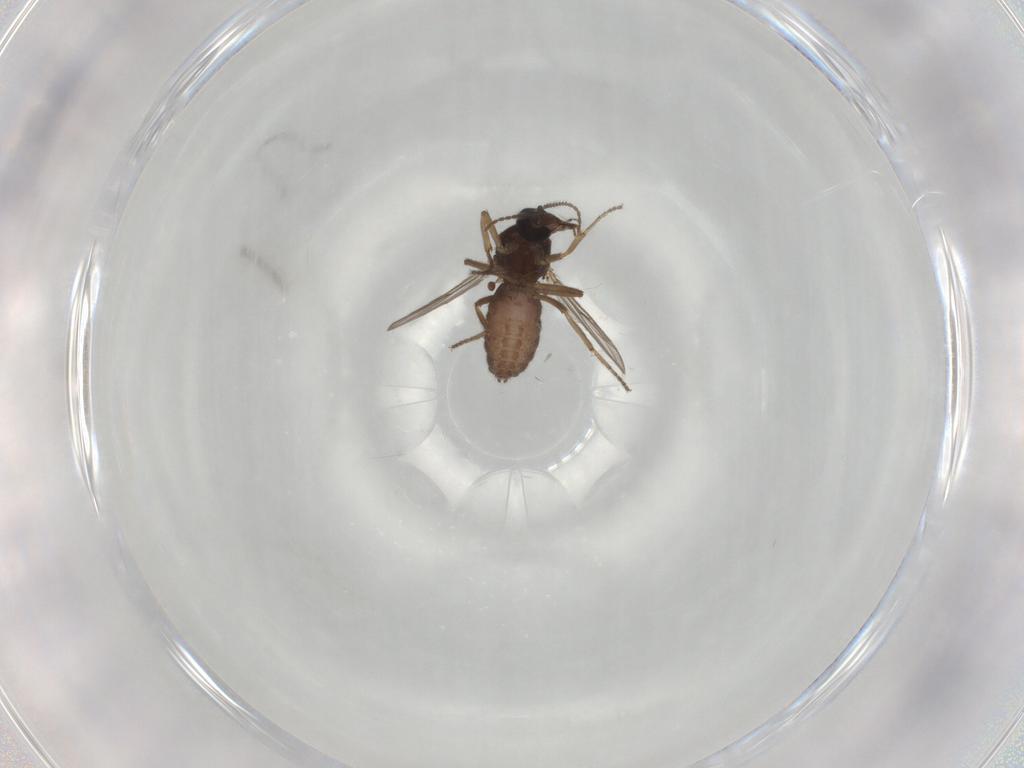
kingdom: Animalia
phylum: Arthropoda
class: Insecta
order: Diptera
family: Ceratopogonidae
